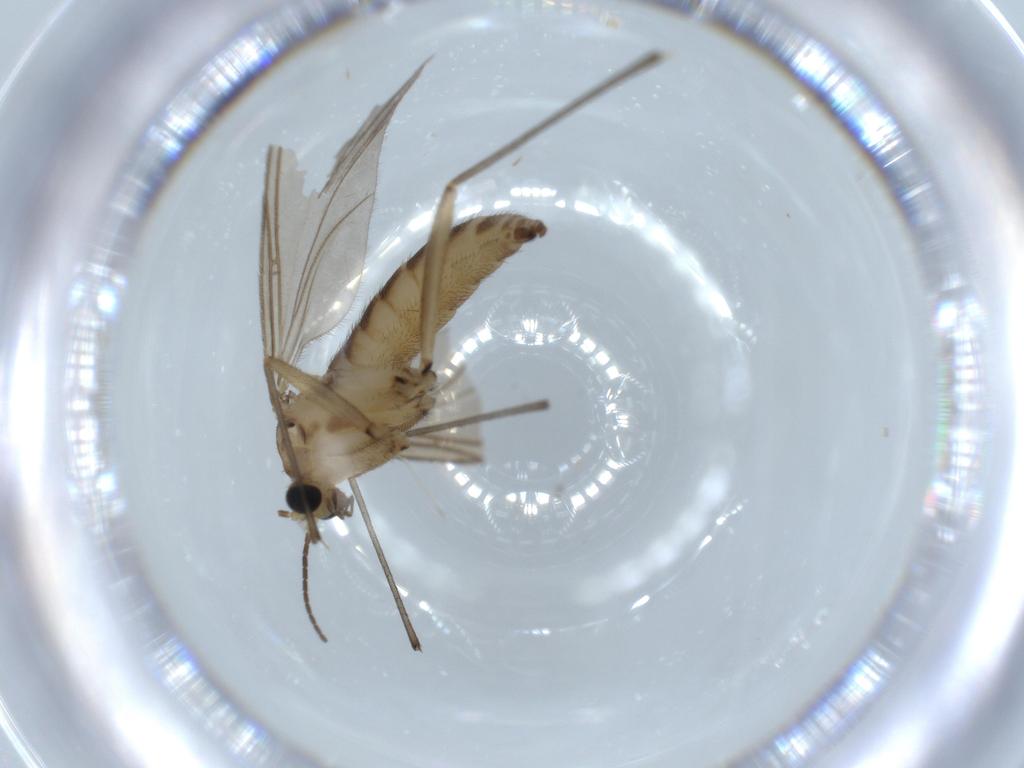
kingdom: Animalia
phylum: Arthropoda
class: Insecta
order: Diptera
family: Sciaridae
